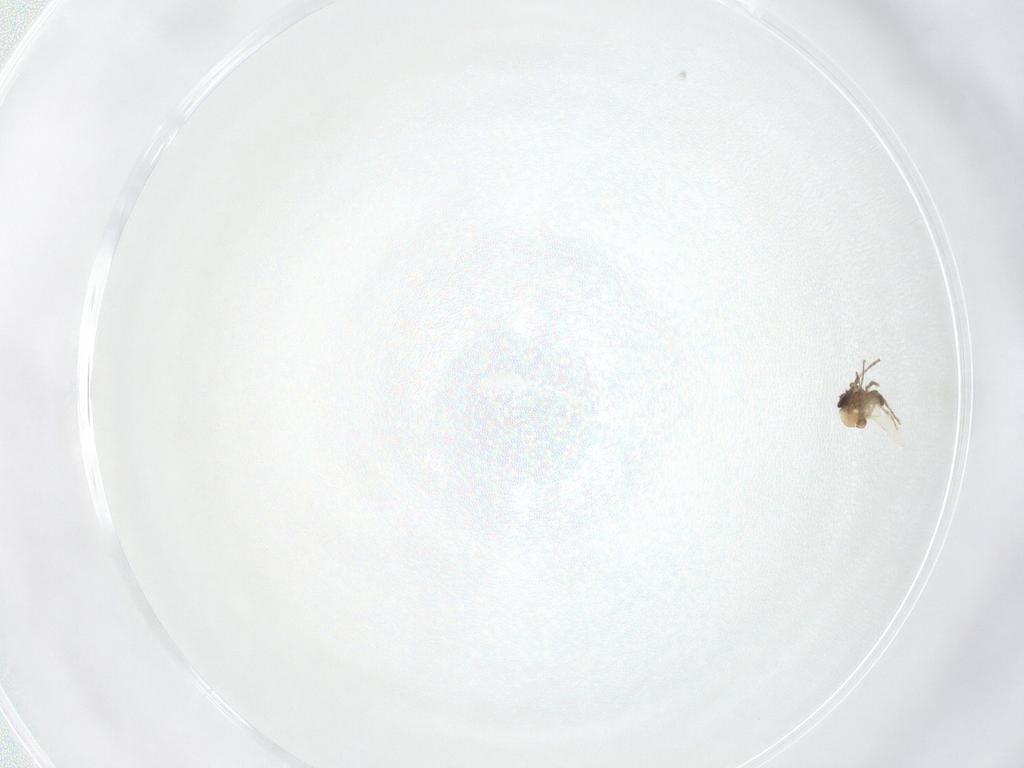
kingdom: Animalia
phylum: Arthropoda
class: Insecta
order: Diptera
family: Ceratopogonidae
